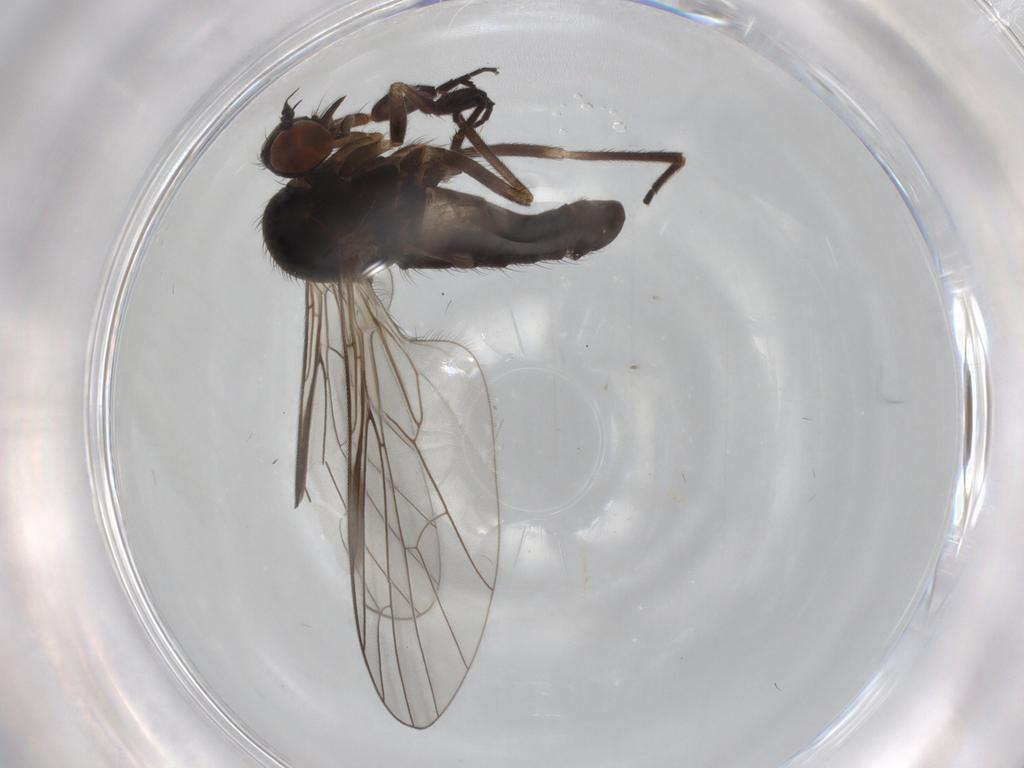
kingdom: Animalia
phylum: Arthropoda
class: Insecta
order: Diptera
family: Empididae
